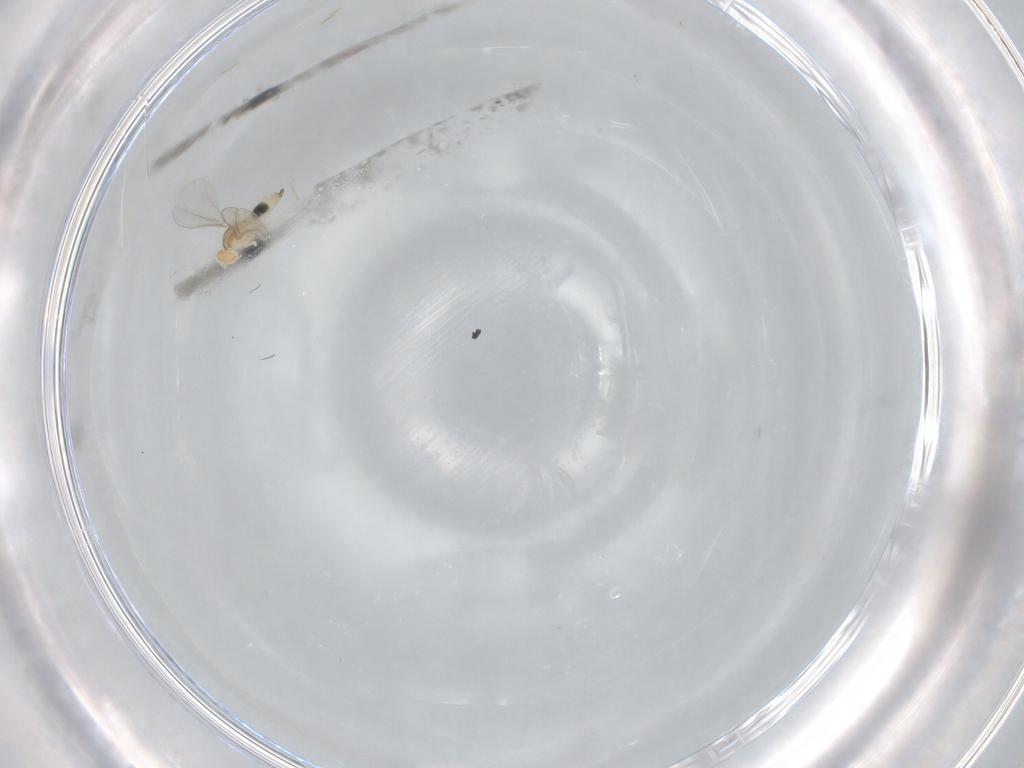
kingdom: Animalia
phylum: Arthropoda
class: Insecta
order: Diptera
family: Cecidomyiidae
